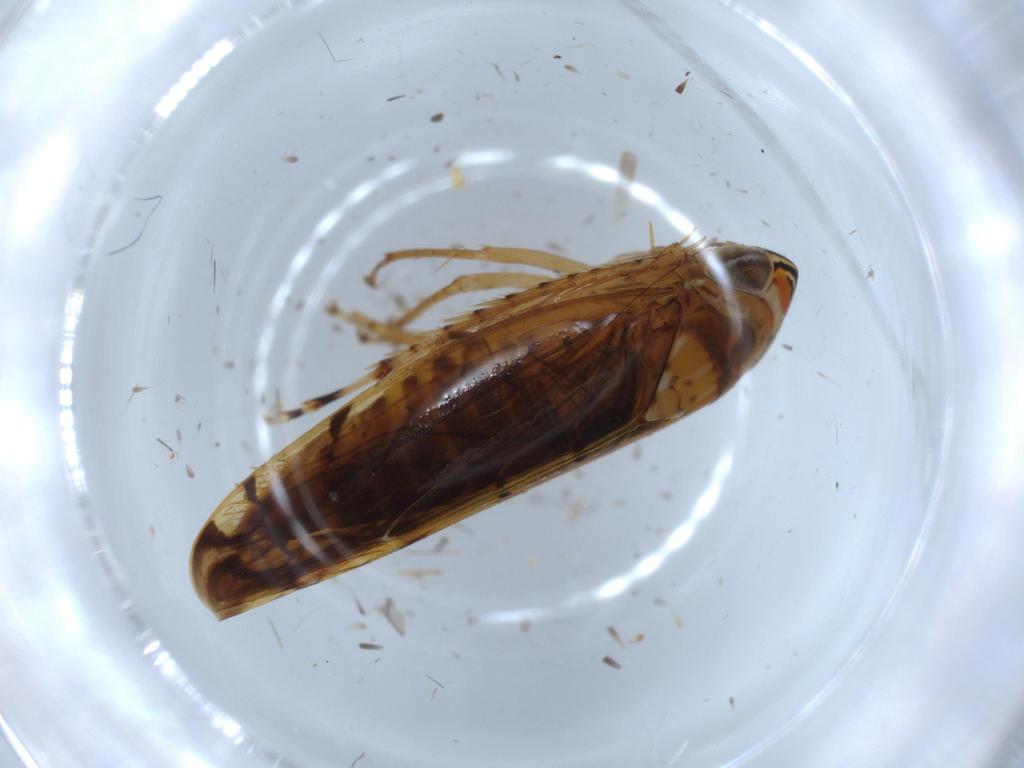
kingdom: Animalia
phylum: Arthropoda
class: Insecta
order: Hemiptera
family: Cicadellidae
